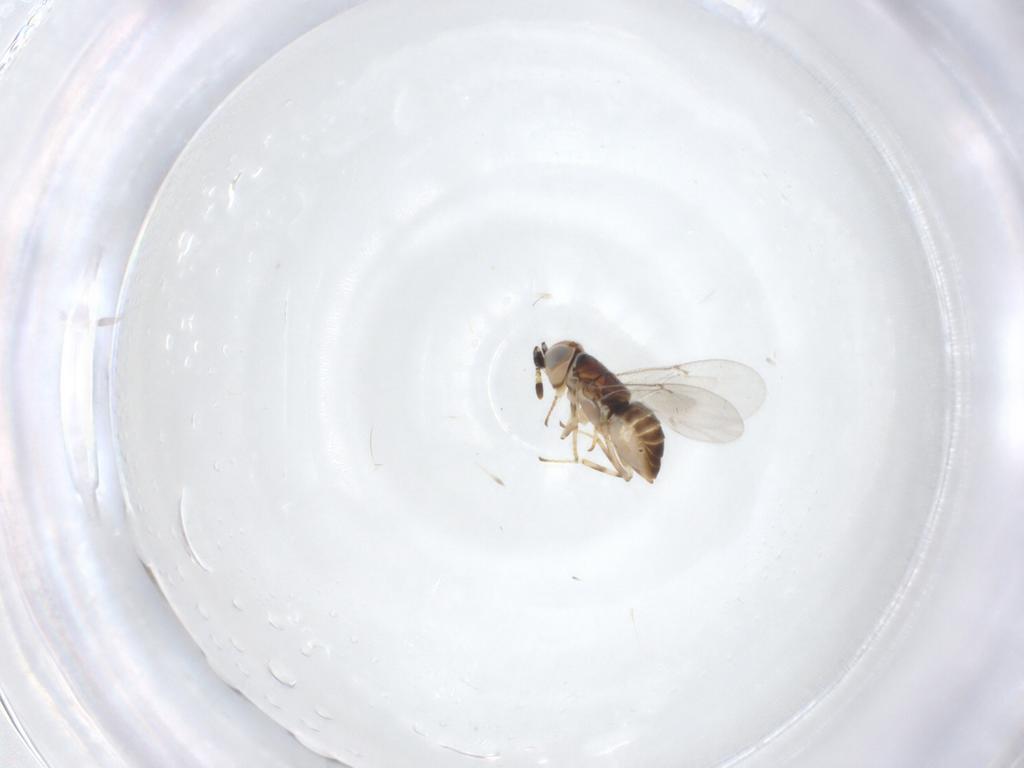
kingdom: Animalia
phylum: Arthropoda
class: Insecta
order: Hymenoptera
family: Encyrtidae
